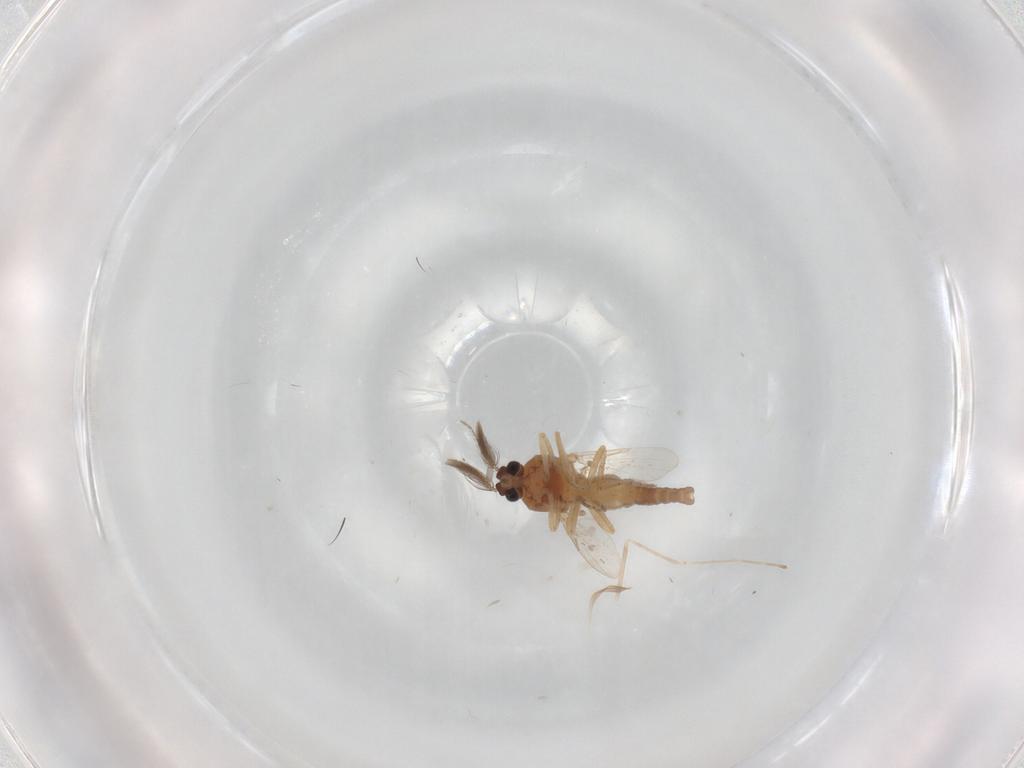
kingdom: Animalia
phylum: Arthropoda
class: Insecta
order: Diptera
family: Ceratopogonidae
